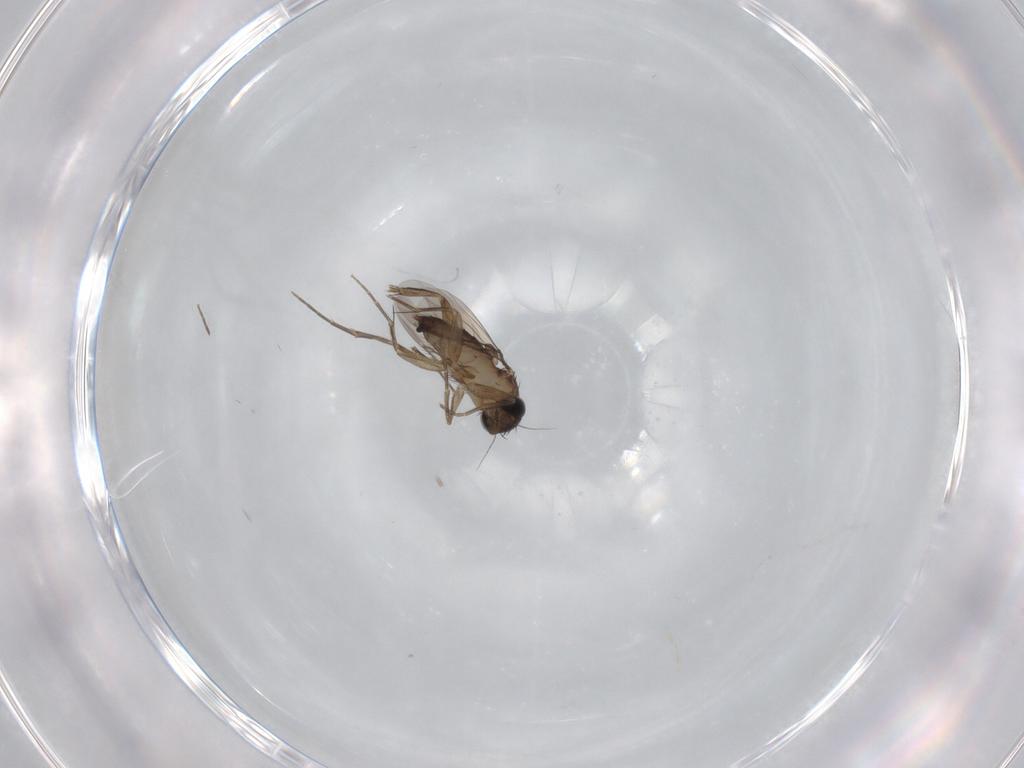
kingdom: Animalia
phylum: Arthropoda
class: Insecta
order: Diptera
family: Phoridae
